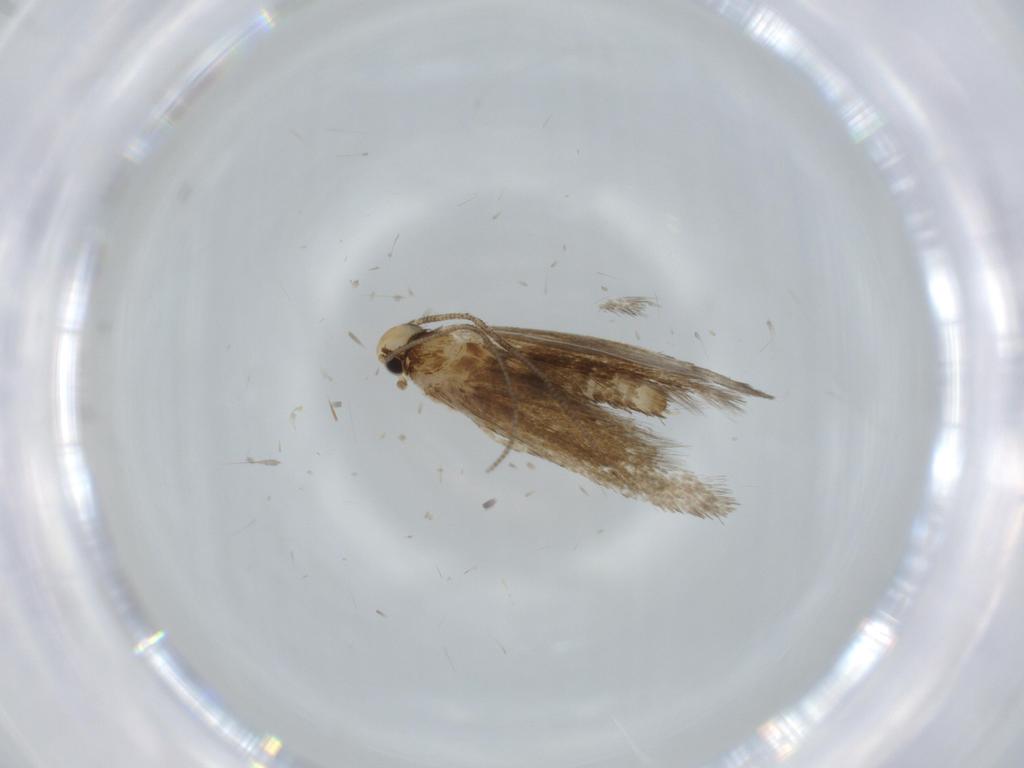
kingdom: Animalia
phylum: Arthropoda
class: Insecta
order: Lepidoptera
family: Tineidae
